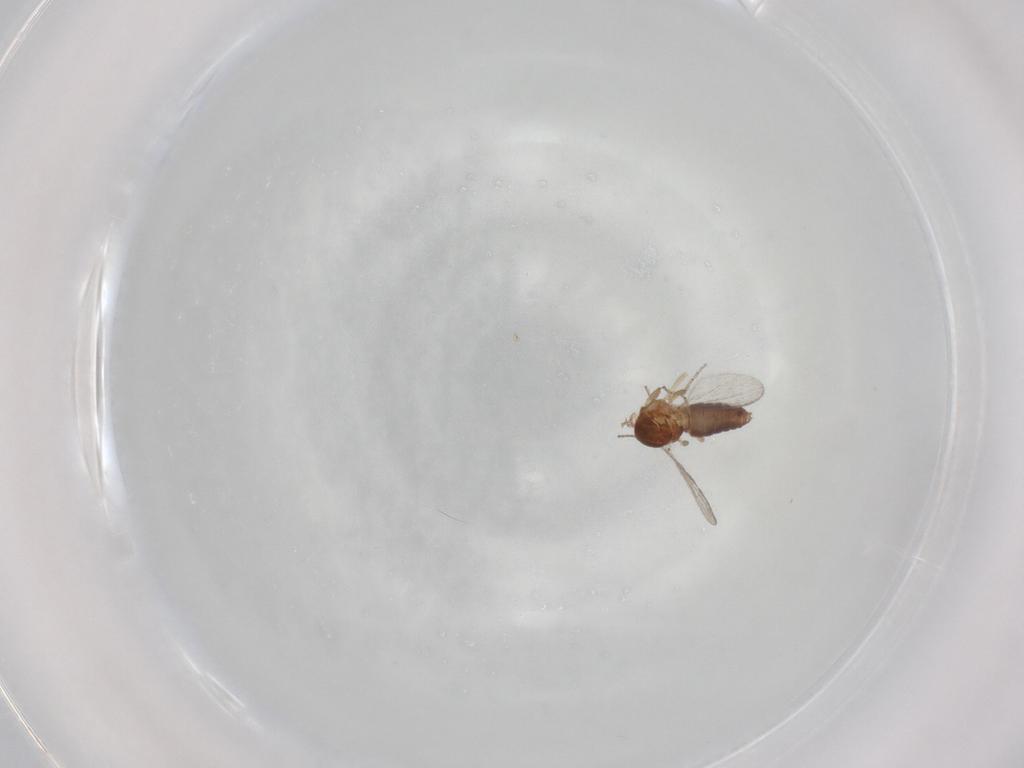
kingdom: Animalia
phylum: Arthropoda
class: Insecta
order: Diptera
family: Ceratopogonidae
